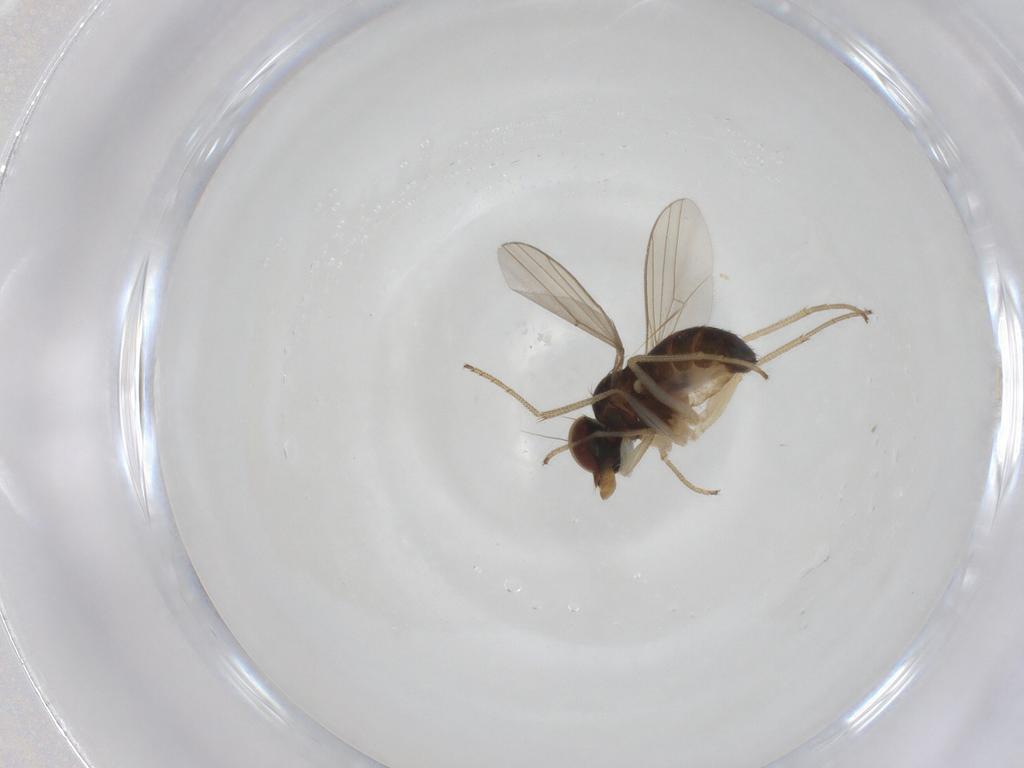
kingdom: Animalia
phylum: Arthropoda
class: Insecta
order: Diptera
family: Dolichopodidae
